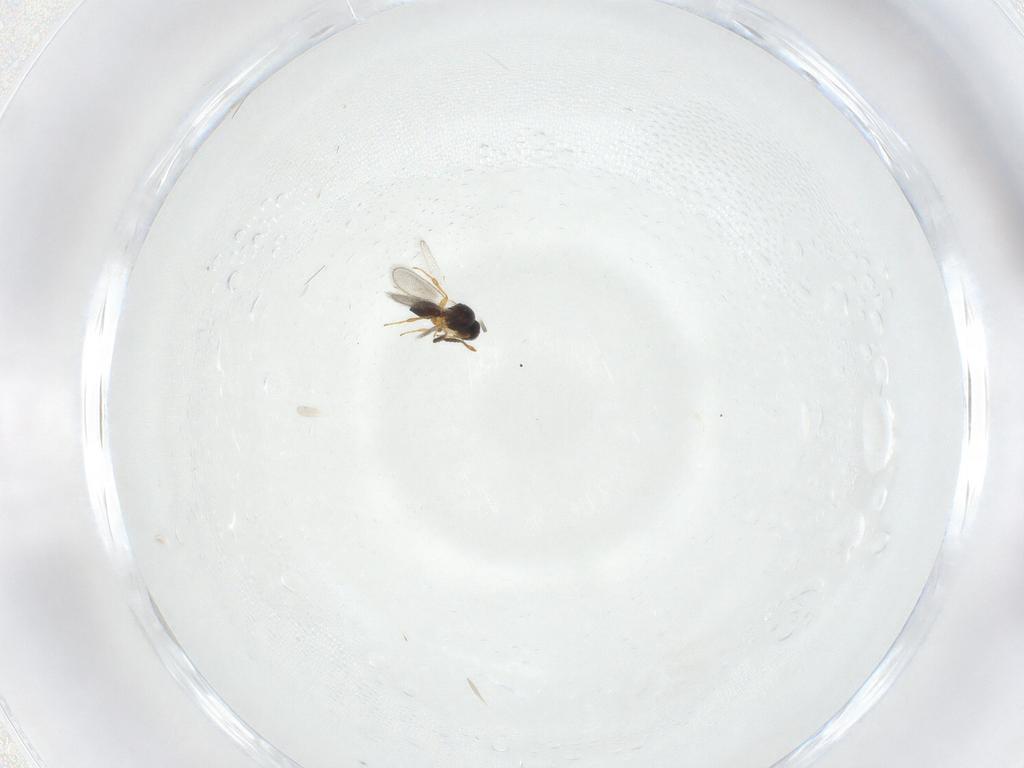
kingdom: Animalia
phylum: Arthropoda
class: Insecta
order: Hymenoptera
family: Platygastridae
